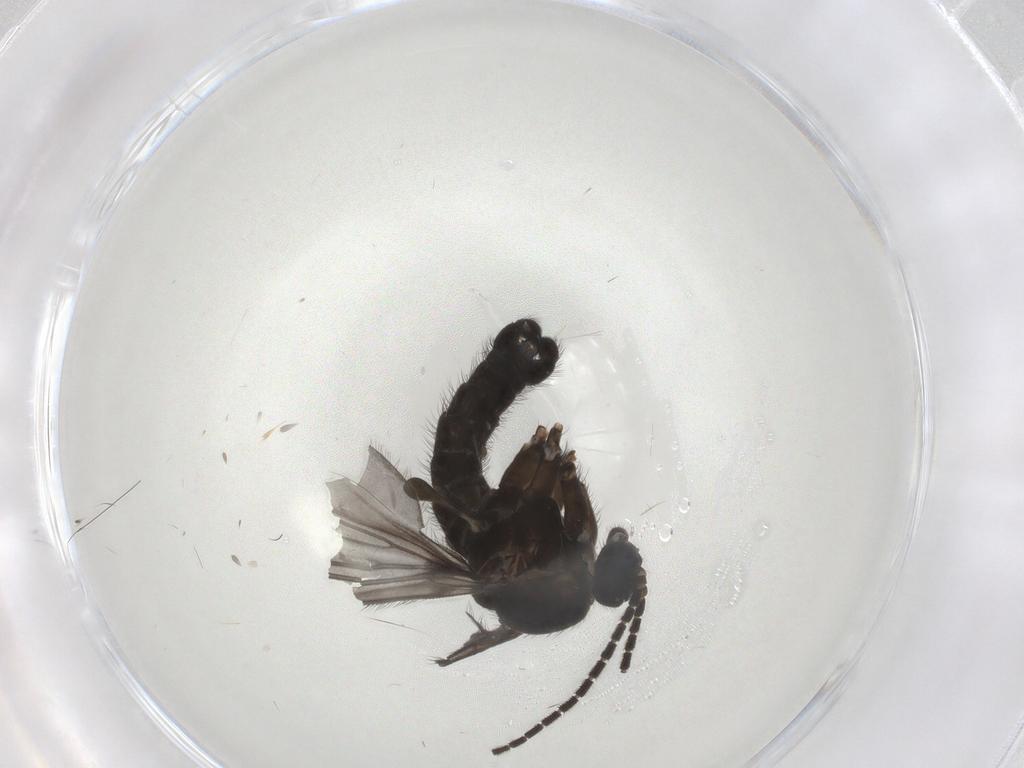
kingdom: Animalia
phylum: Arthropoda
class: Insecta
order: Diptera
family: Sciaridae
